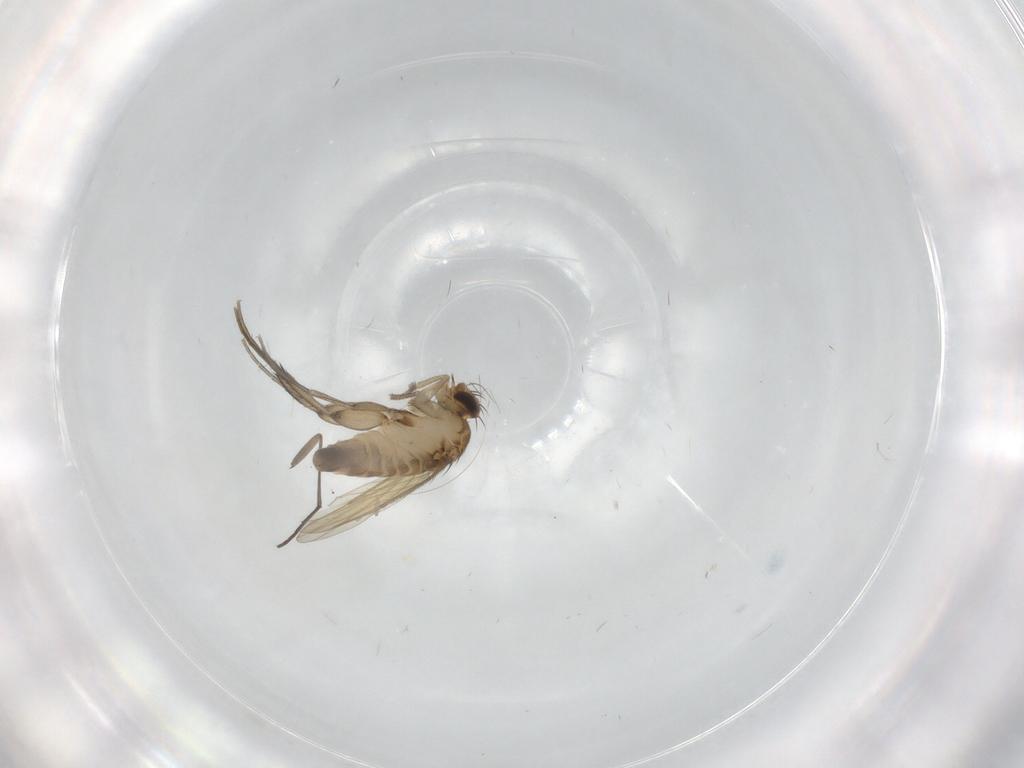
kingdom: Animalia
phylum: Arthropoda
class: Insecta
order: Diptera
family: Phoridae
